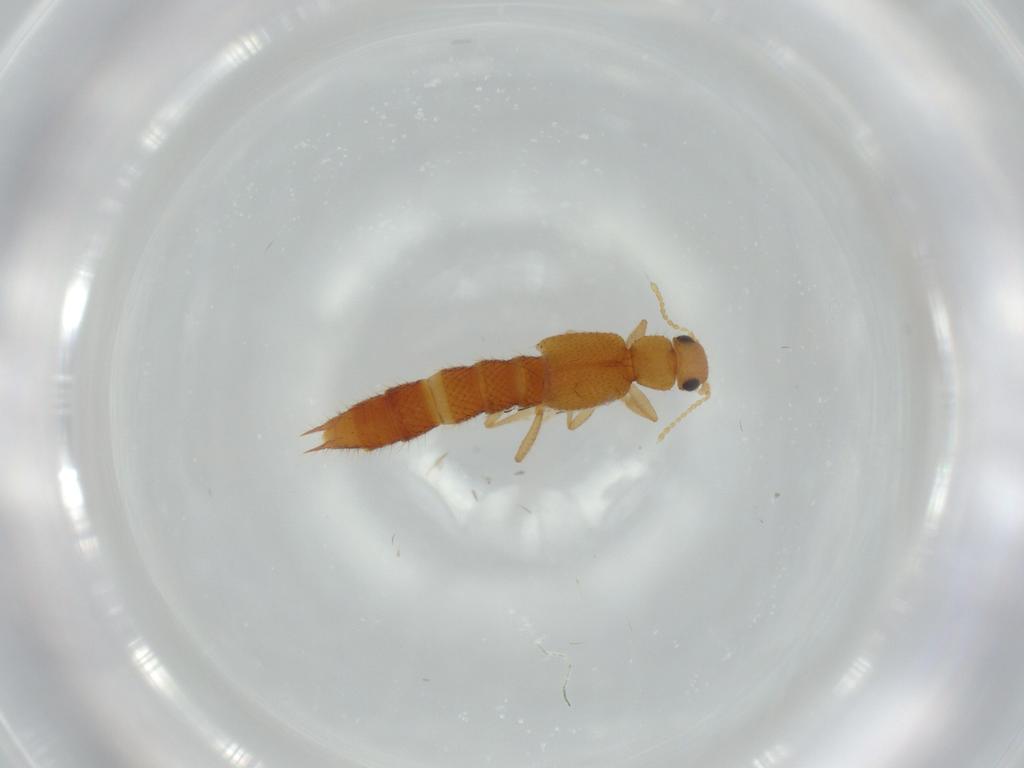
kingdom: Animalia
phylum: Arthropoda
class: Insecta
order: Coleoptera
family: Staphylinidae
